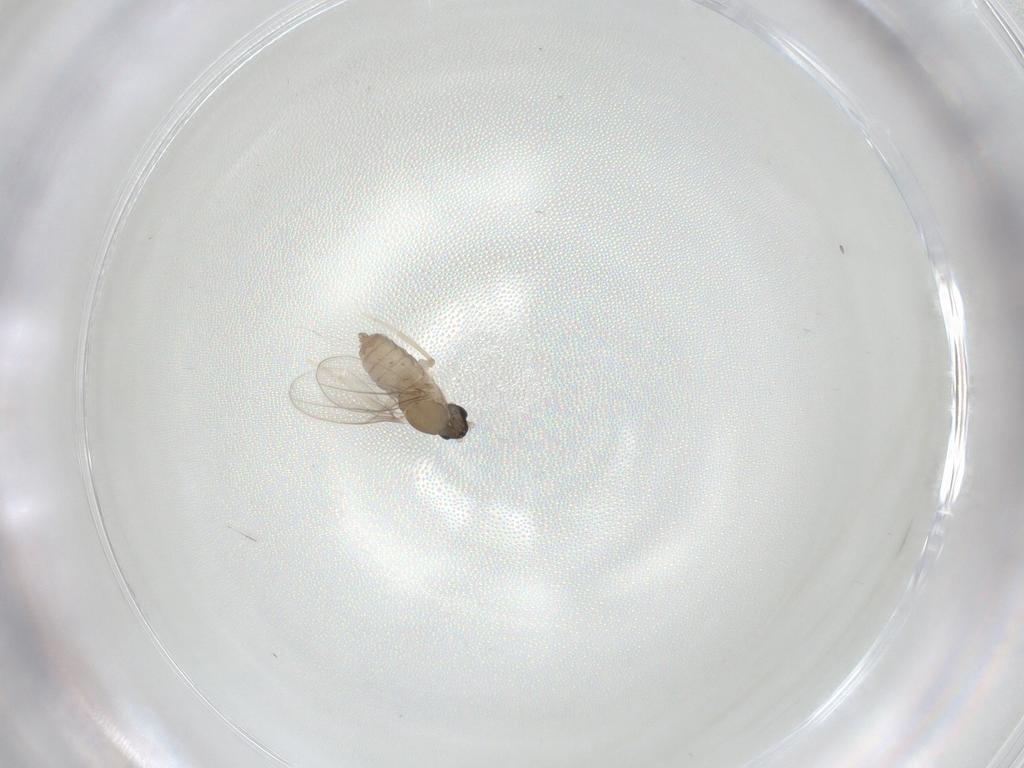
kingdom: Animalia
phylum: Arthropoda
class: Insecta
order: Diptera
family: Cecidomyiidae
